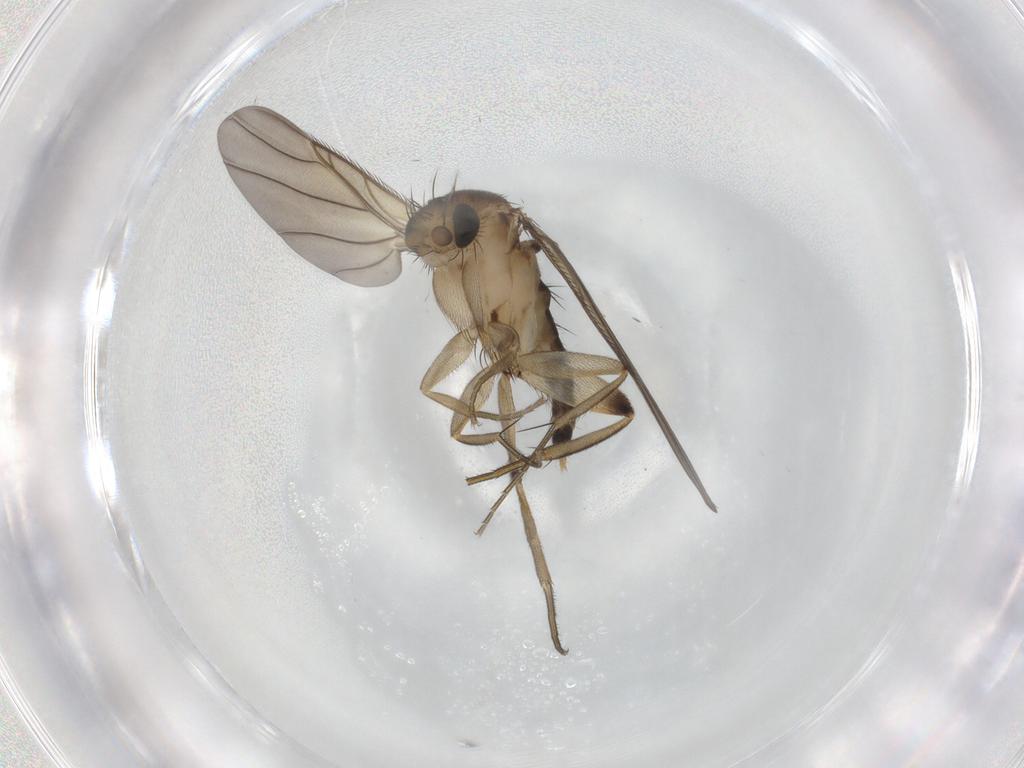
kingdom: Animalia
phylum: Arthropoda
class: Insecta
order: Diptera
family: Phoridae
